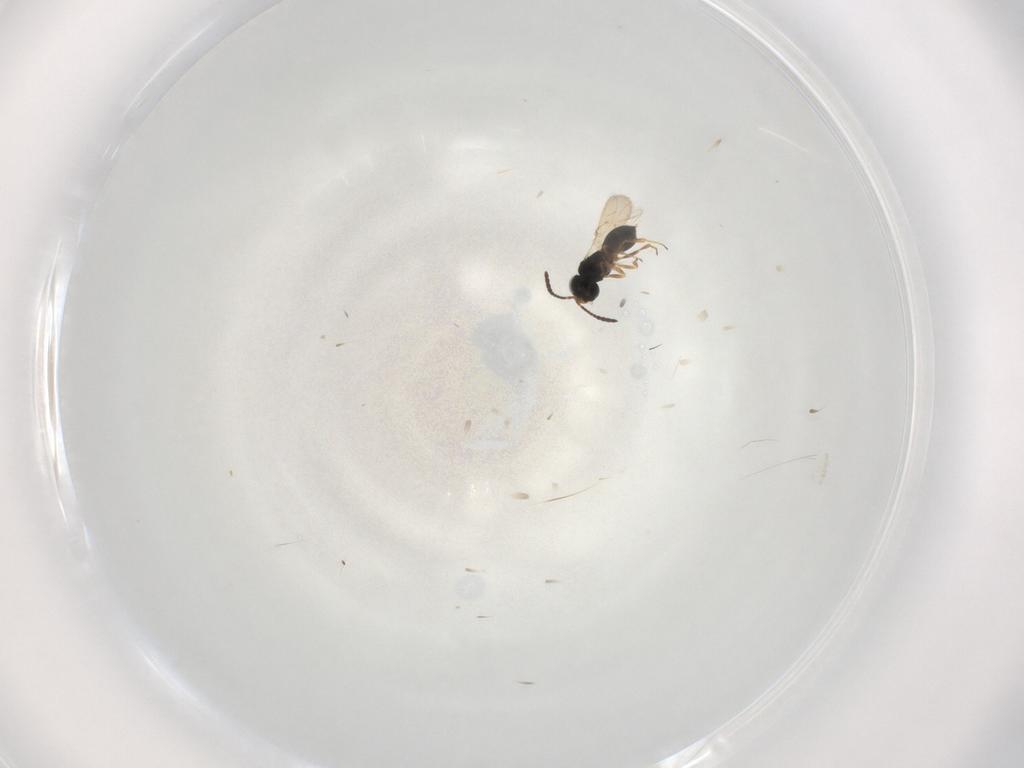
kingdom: Animalia
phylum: Arthropoda
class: Insecta
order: Hymenoptera
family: Scelionidae
